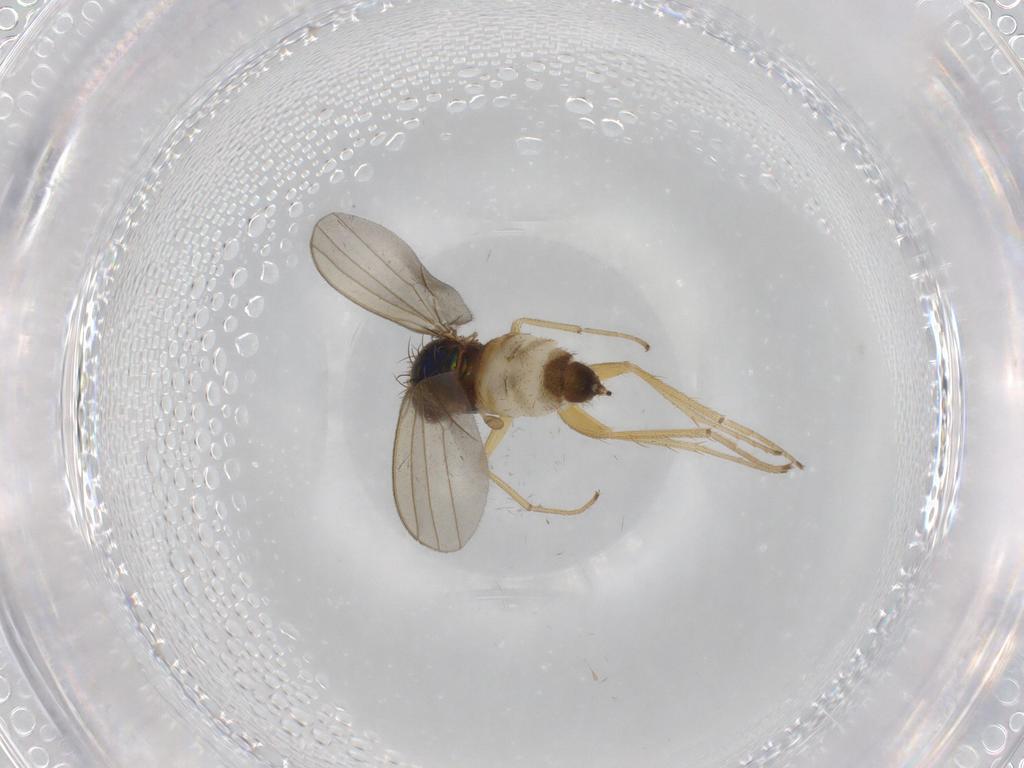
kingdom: Animalia
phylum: Arthropoda
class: Insecta
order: Diptera
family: Dolichopodidae
